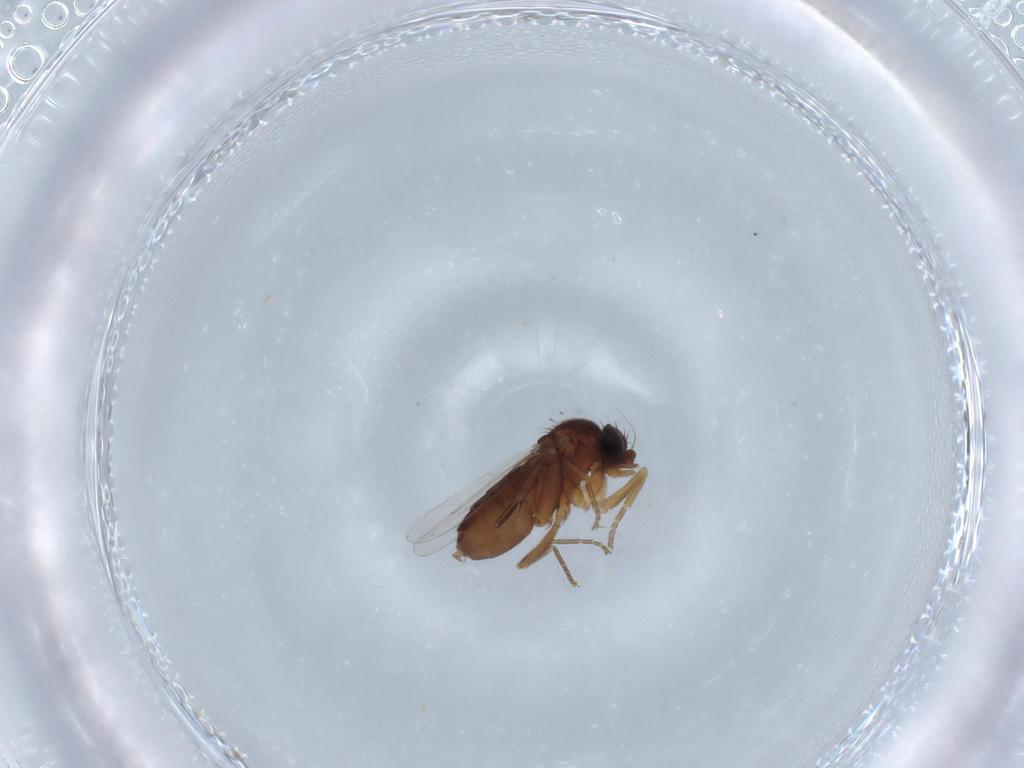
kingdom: Animalia
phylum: Arthropoda
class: Insecta
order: Diptera
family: Phoridae
